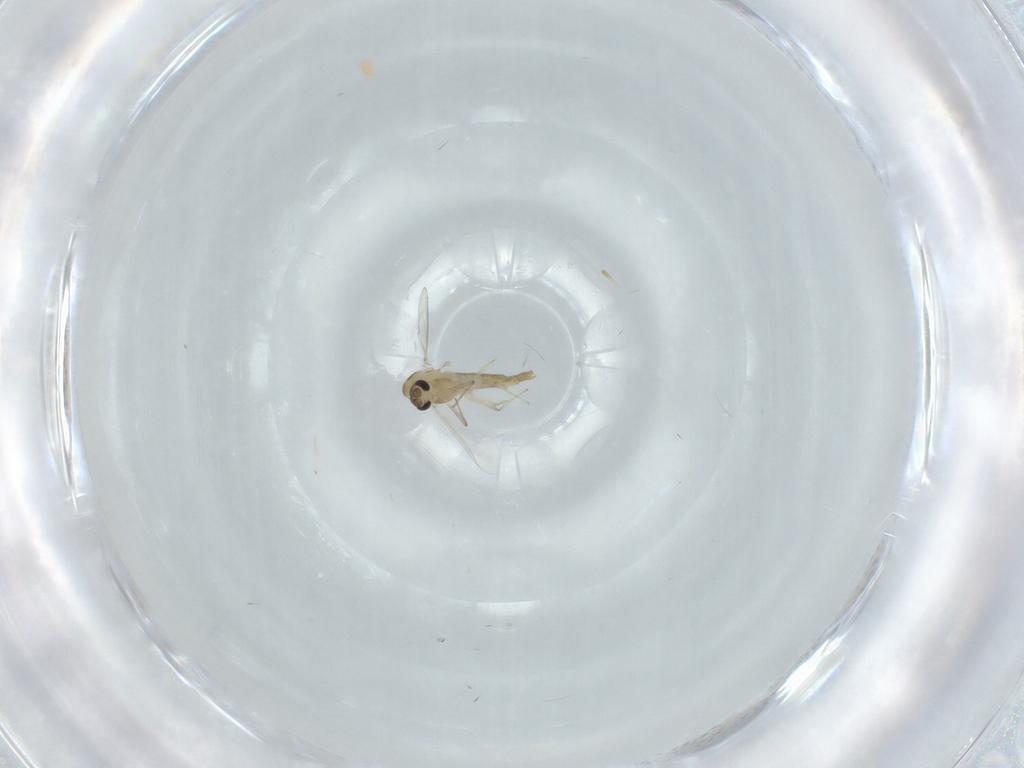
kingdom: Animalia
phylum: Arthropoda
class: Insecta
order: Diptera
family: Chironomidae
